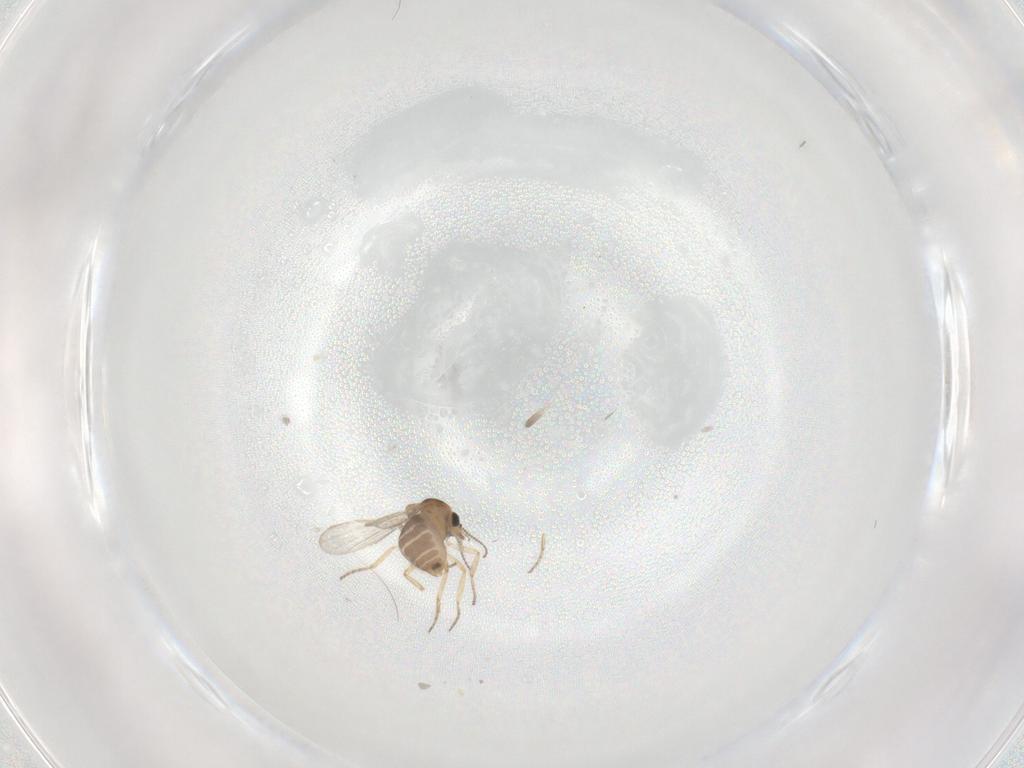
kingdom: Animalia
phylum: Arthropoda
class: Insecta
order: Diptera
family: Ceratopogonidae
